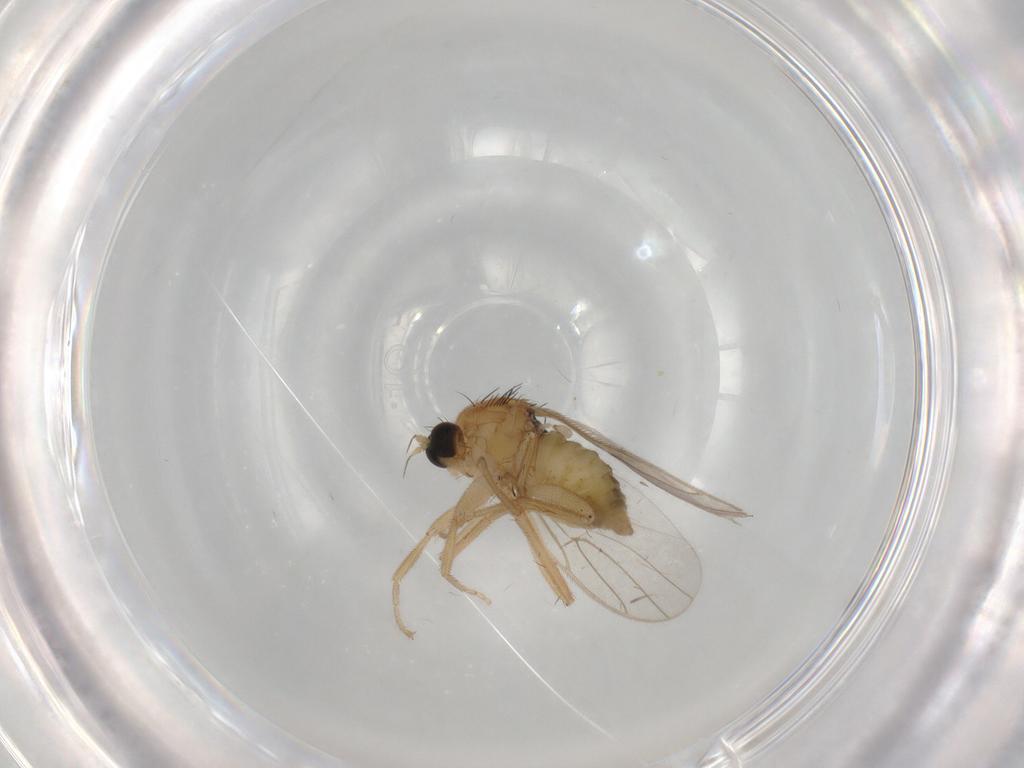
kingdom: Animalia
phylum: Arthropoda
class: Insecta
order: Diptera
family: Hybotidae
